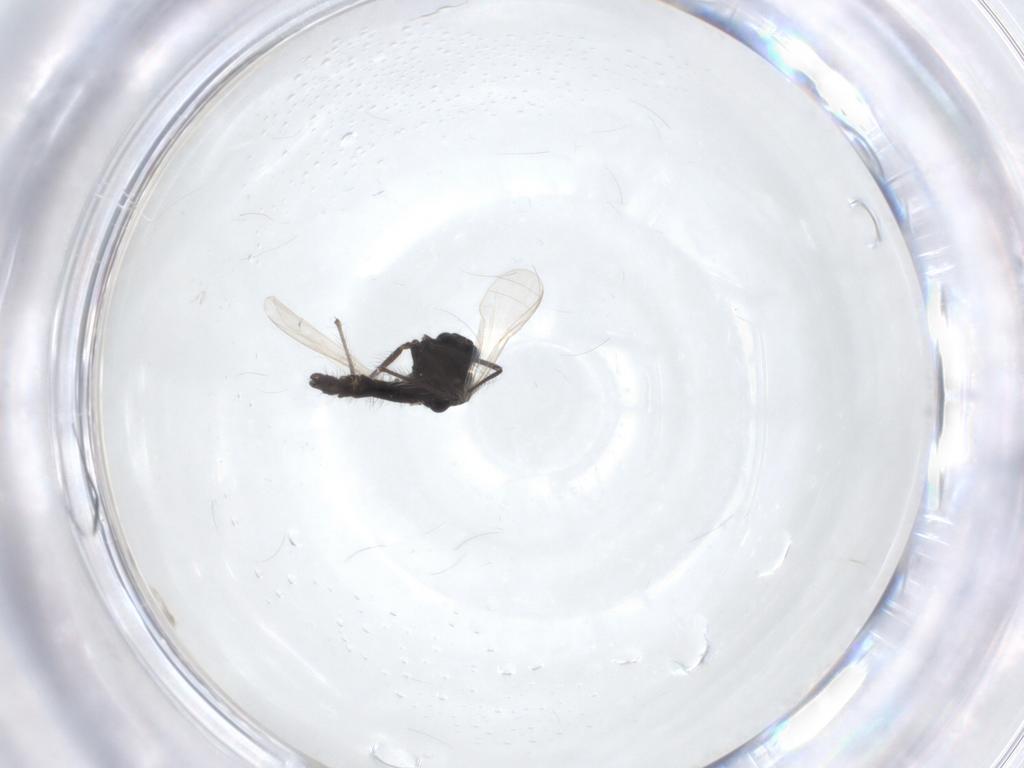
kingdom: Animalia
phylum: Arthropoda
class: Insecta
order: Diptera
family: Chironomidae
